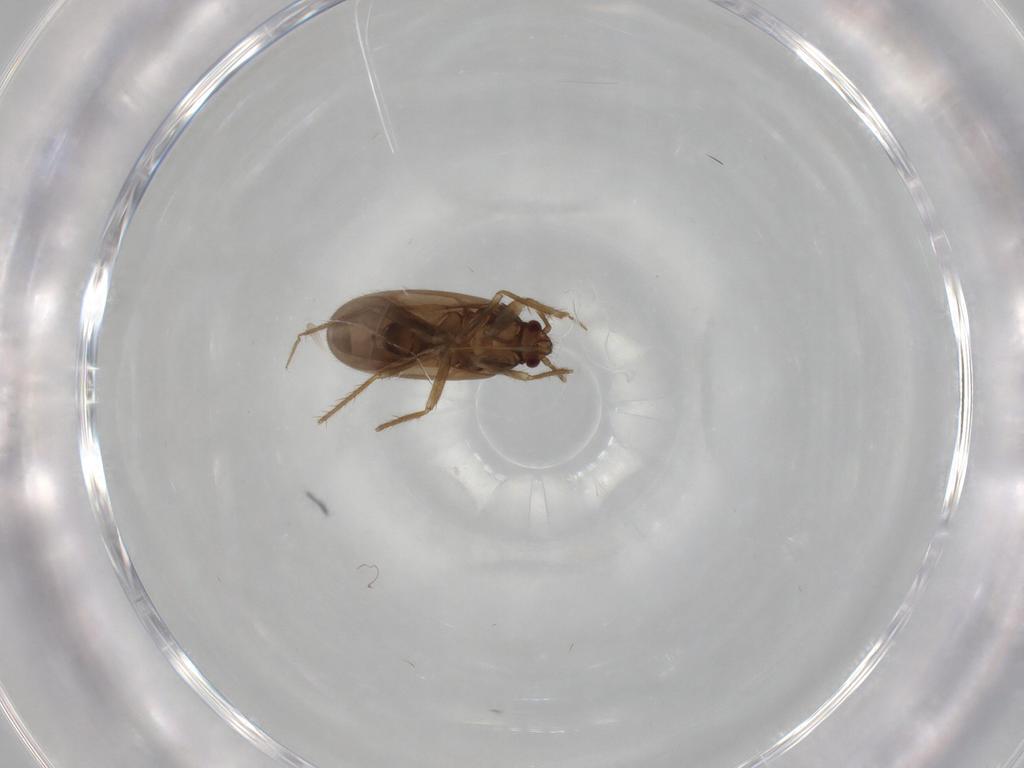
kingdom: Animalia
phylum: Arthropoda
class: Insecta
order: Hemiptera
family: Ceratocombidae
